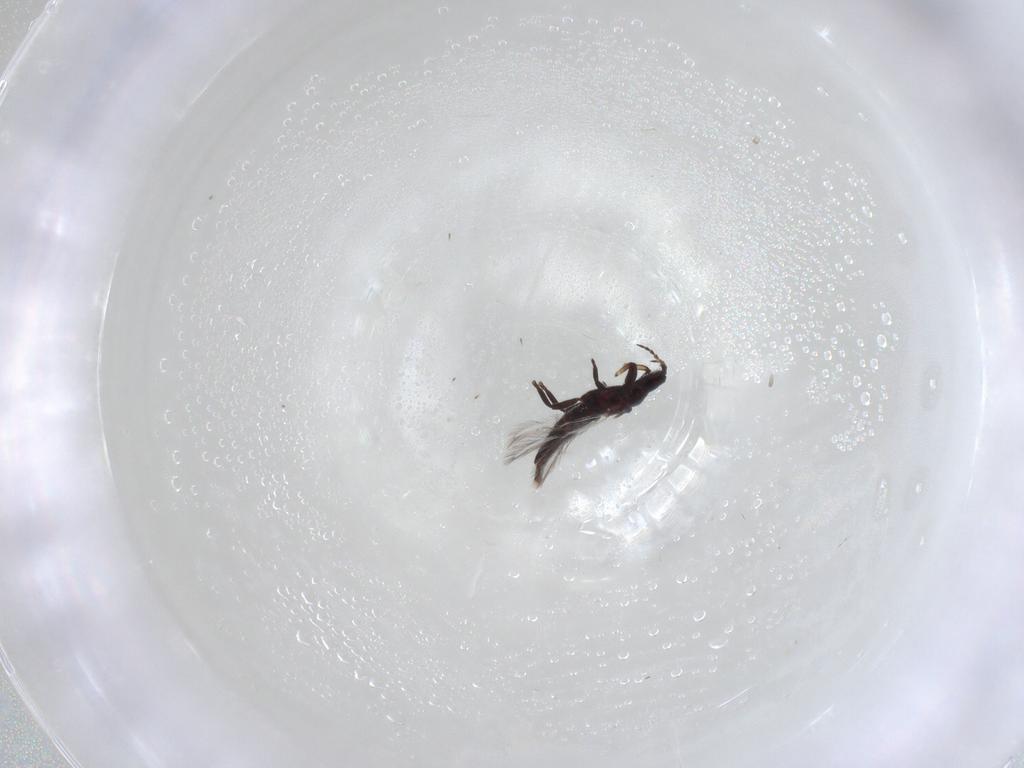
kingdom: Animalia
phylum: Arthropoda
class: Insecta
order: Thysanoptera
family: Phlaeothripidae
